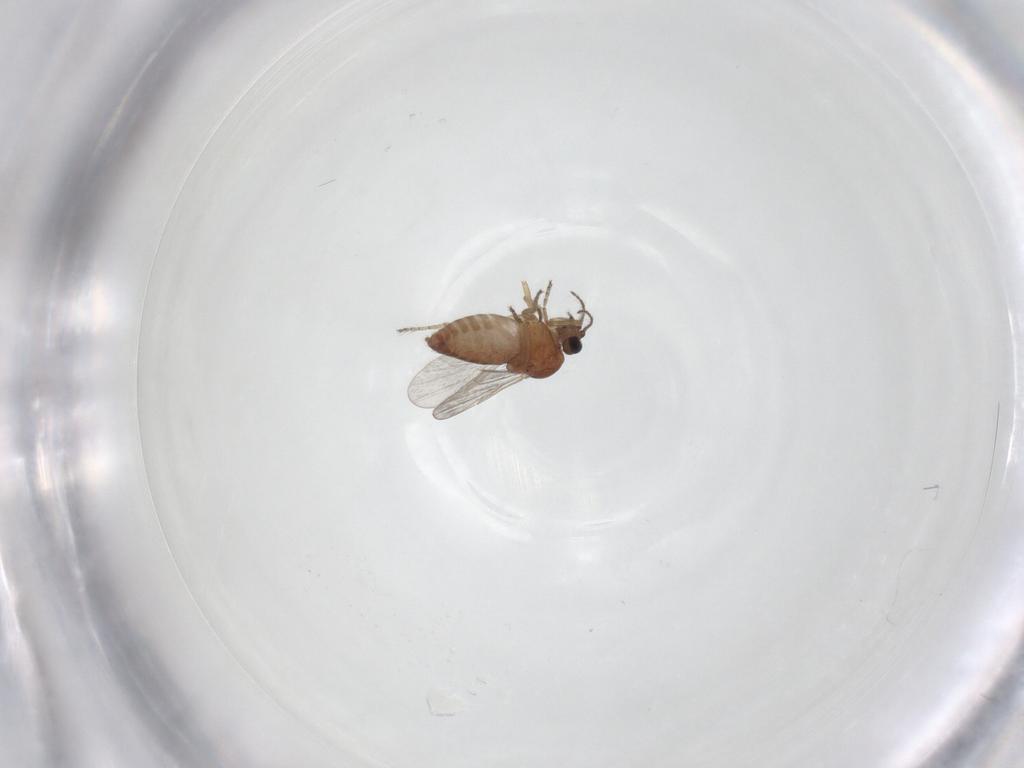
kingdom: Animalia
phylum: Arthropoda
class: Insecta
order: Diptera
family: Ceratopogonidae
